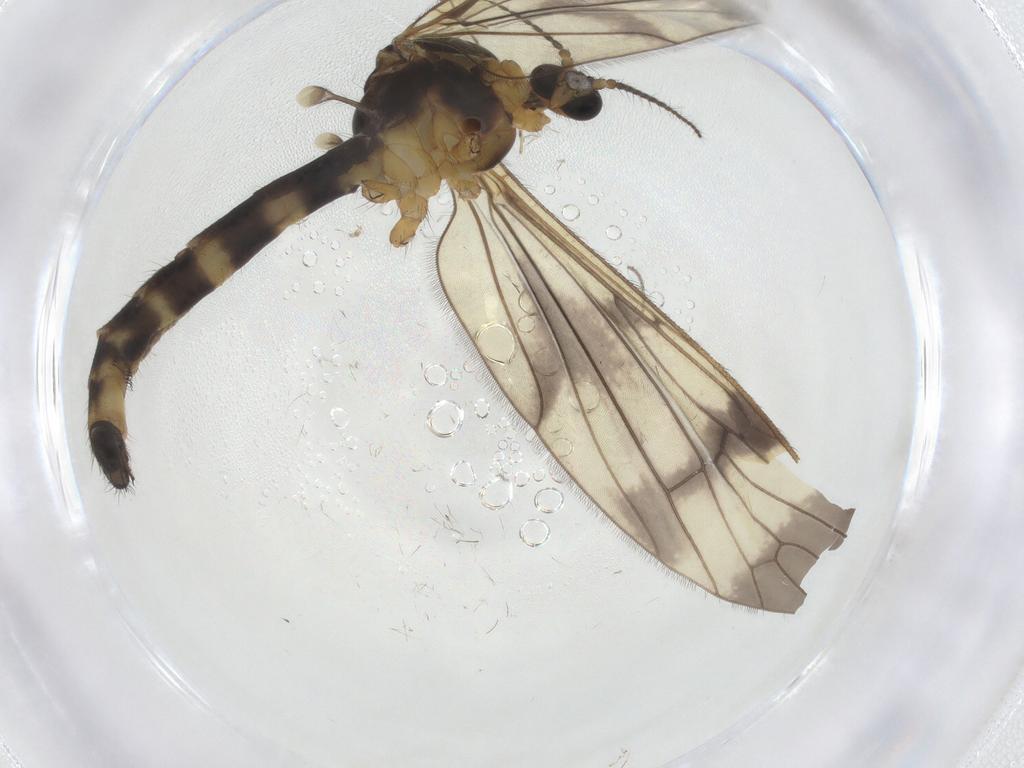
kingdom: Animalia
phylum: Arthropoda
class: Insecta
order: Diptera
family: Limoniidae
